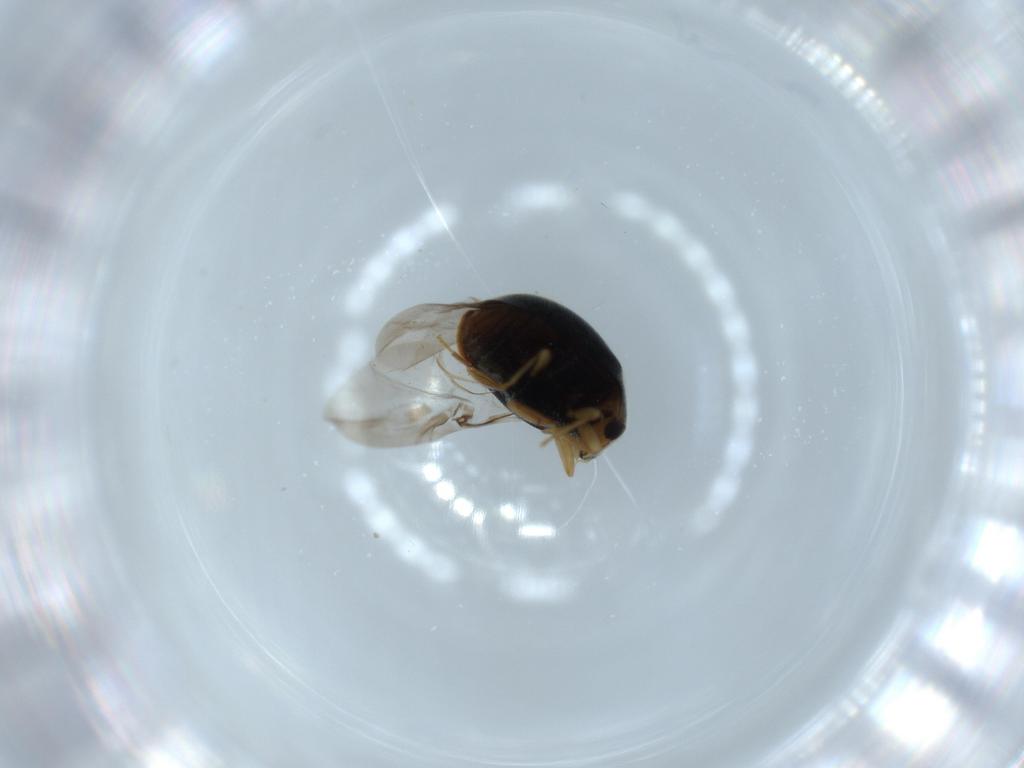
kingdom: Animalia
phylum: Arthropoda
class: Insecta
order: Coleoptera
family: Coccinellidae
